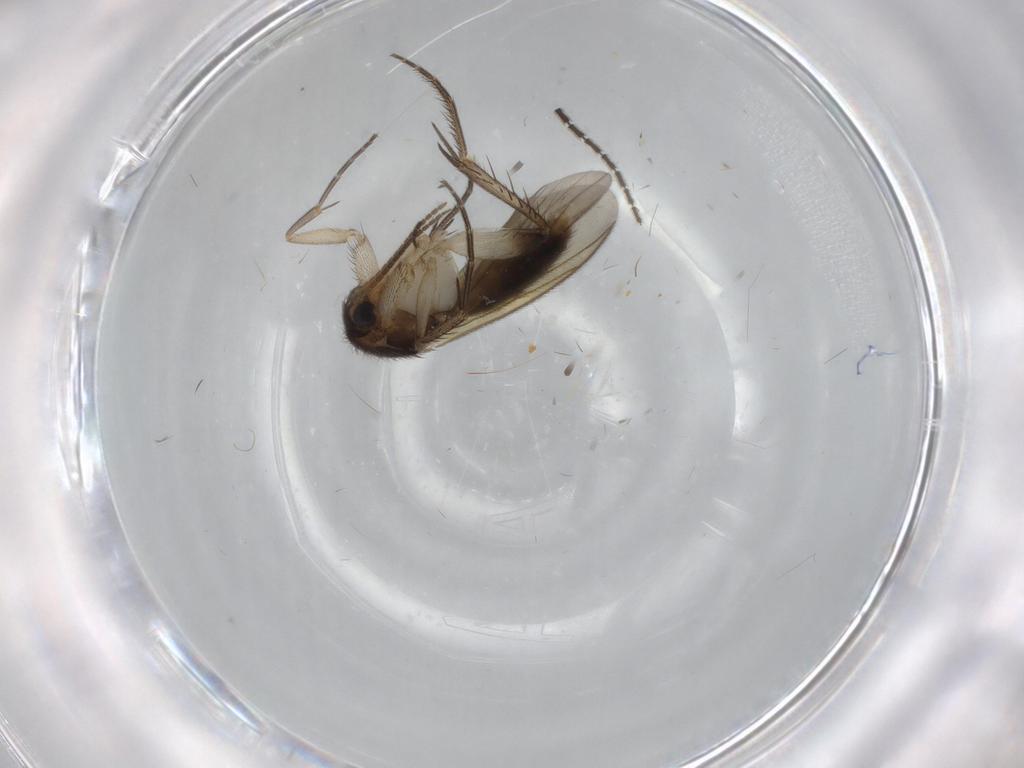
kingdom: Animalia
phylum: Arthropoda
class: Insecta
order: Diptera
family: Mycetophilidae
